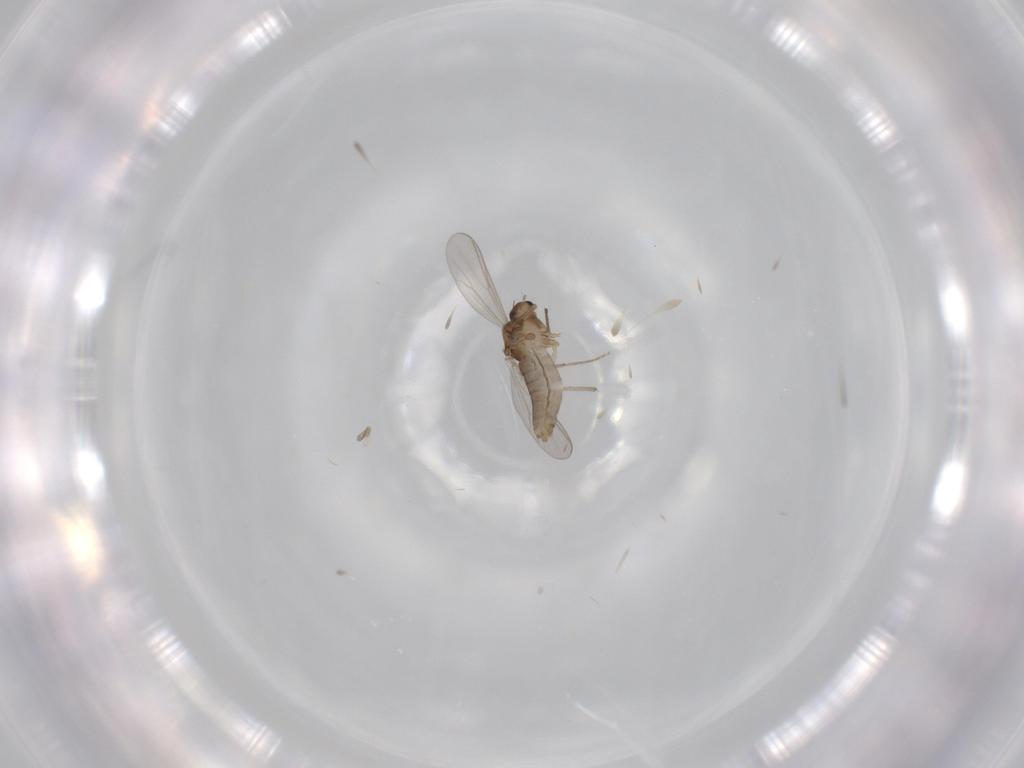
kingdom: Animalia
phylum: Arthropoda
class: Insecta
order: Diptera
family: Chironomidae
